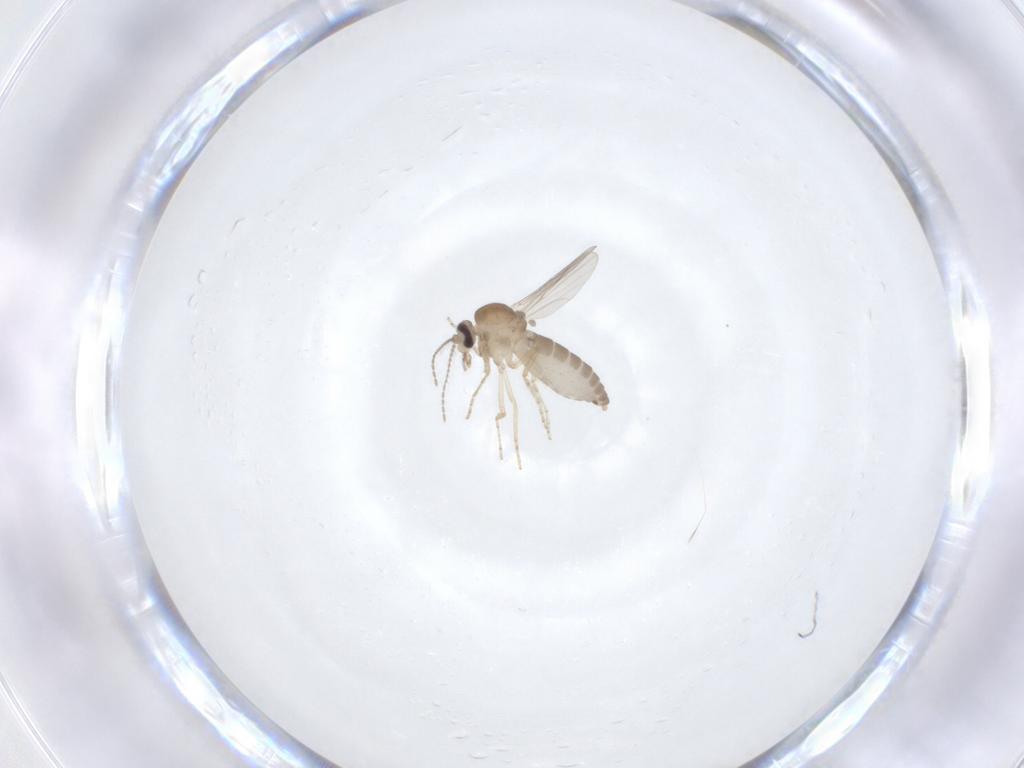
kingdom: Animalia
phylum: Arthropoda
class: Insecta
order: Diptera
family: Ceratopogonidae
